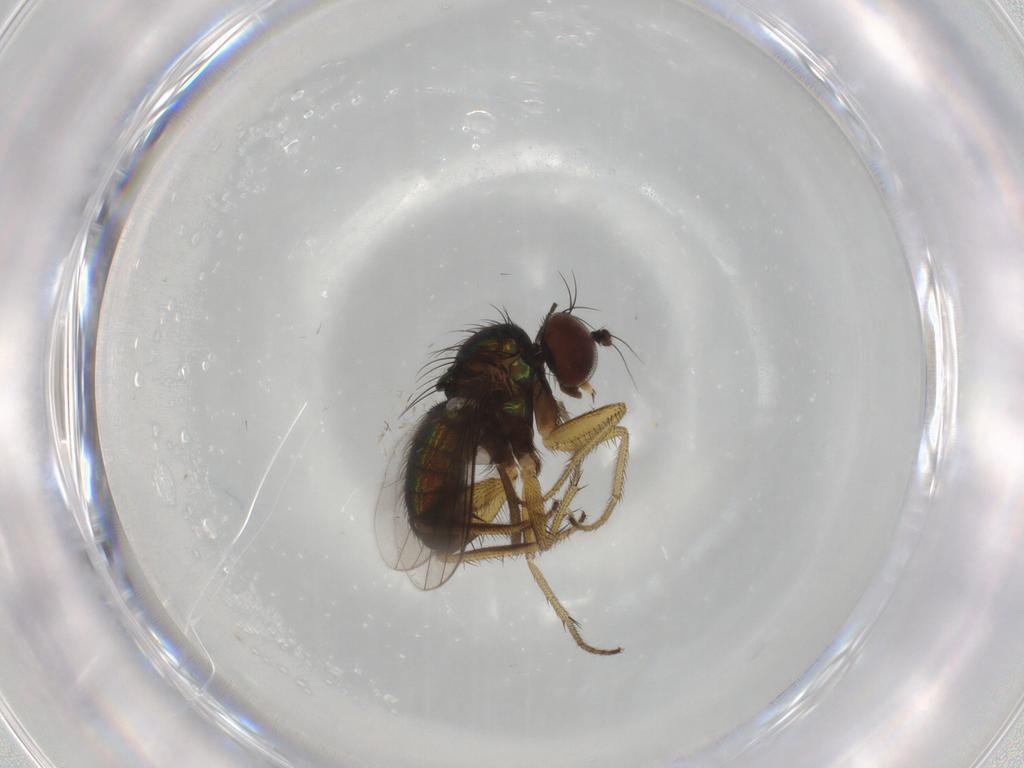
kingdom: Animalia
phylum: Arthropoda
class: Insecta
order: Diptera
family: Dolichopodidae
